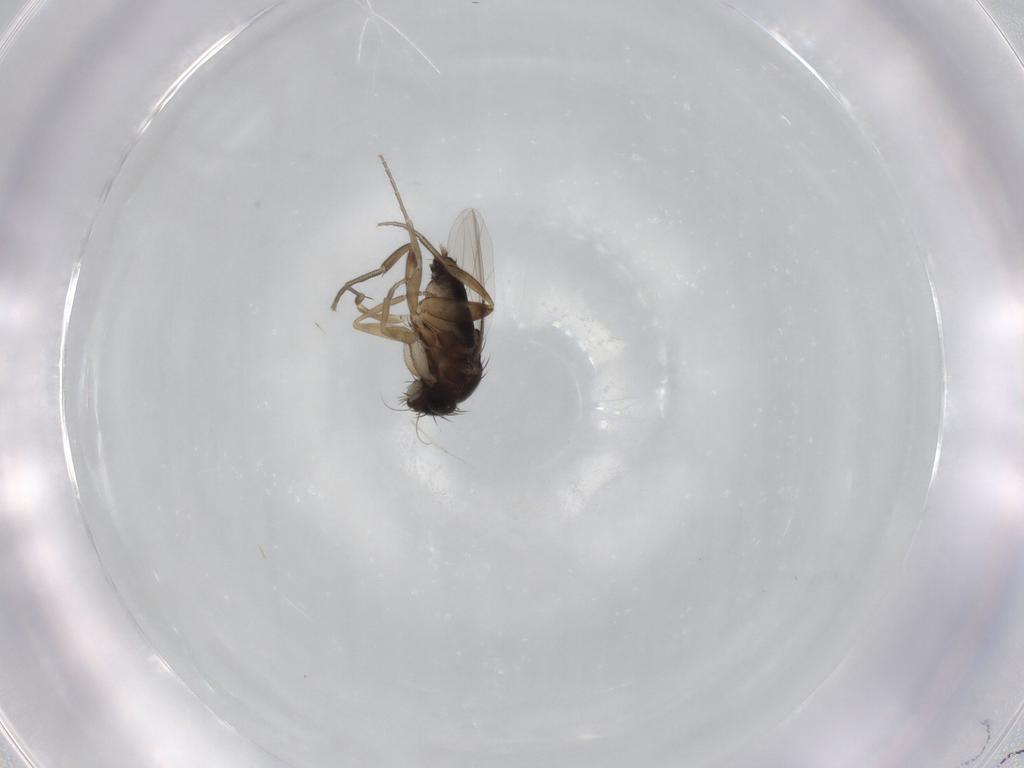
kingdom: Animalia
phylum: Arthropoda
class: Insecta
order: Diptera
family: Phoridae
